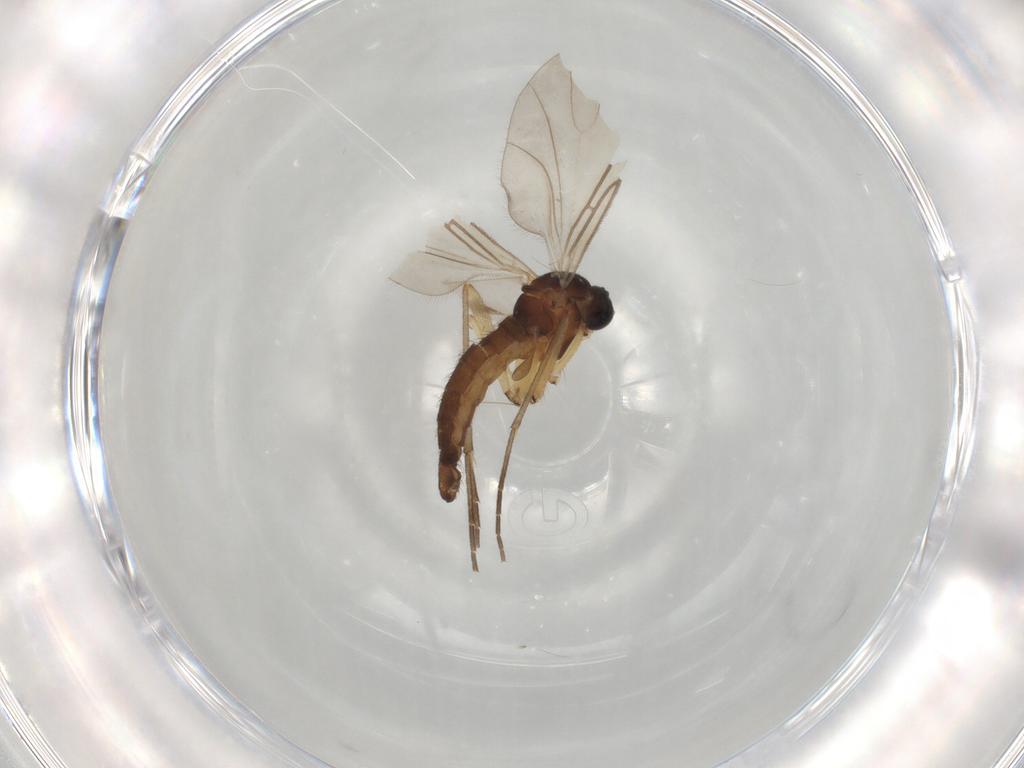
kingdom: Animalia
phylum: Arthropoda
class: Insecta
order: Diptera
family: Sciaridae
